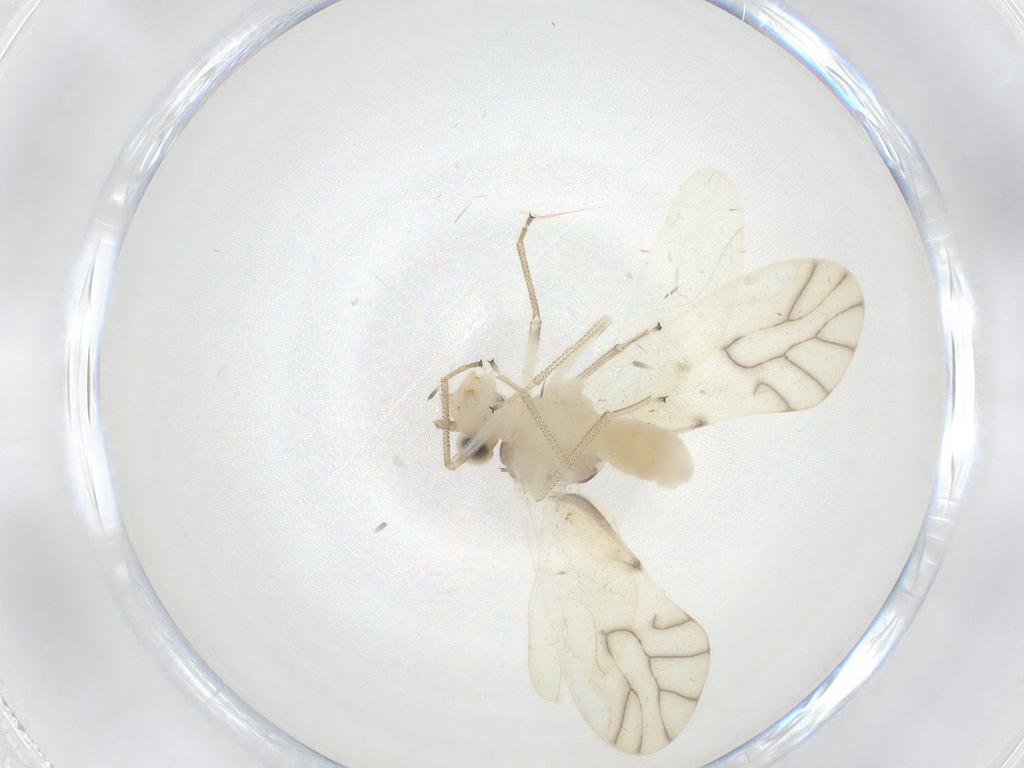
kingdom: Animalia
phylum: Arthropoda
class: Insecta
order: Psocodea
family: Caeciliusidae
